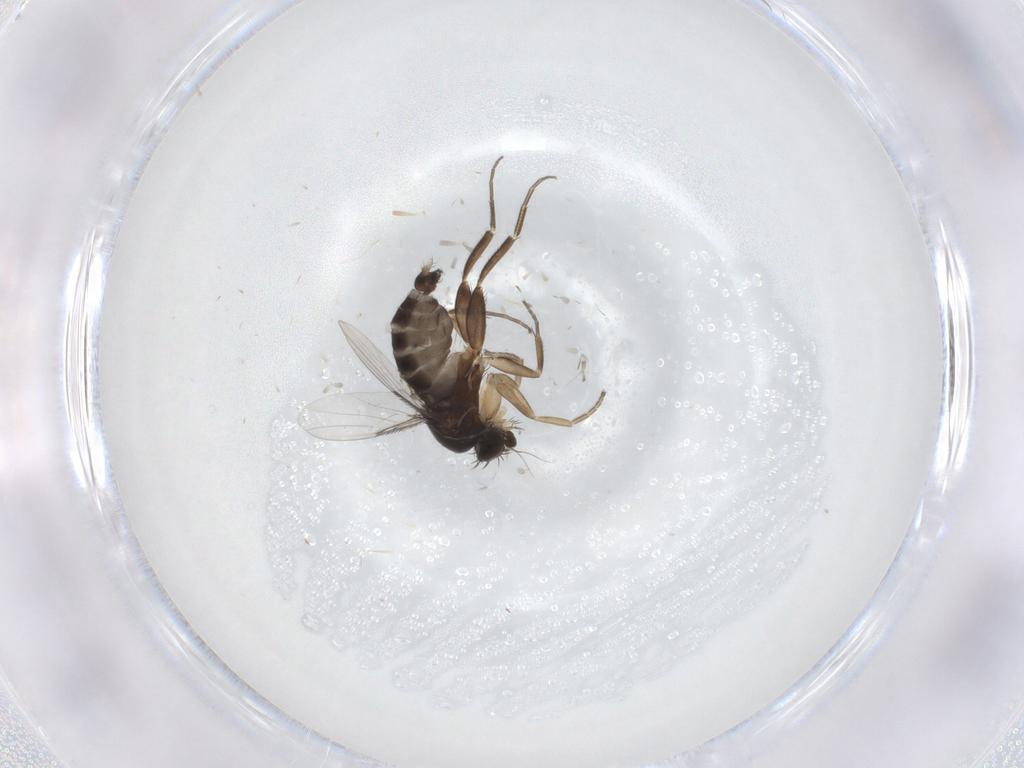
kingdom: Animalia
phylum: Arthropoda
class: Insecta
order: Diptera
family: Phoridae
